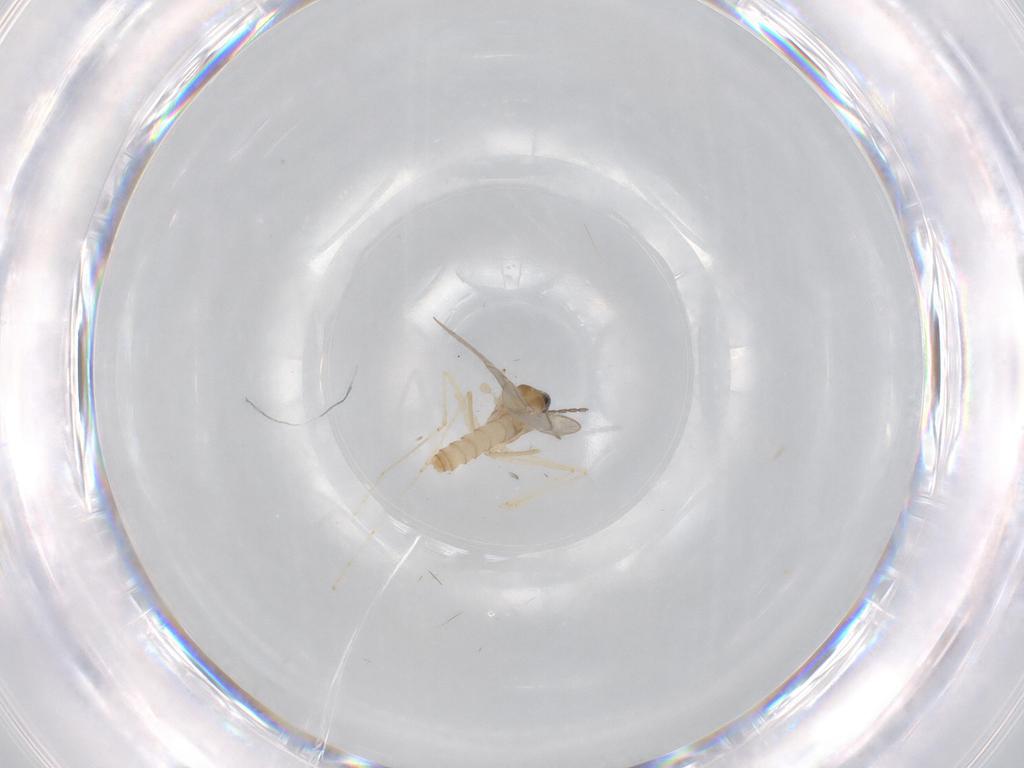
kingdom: Animalia
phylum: Arthropoda
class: Insecta
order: Diptera
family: Cecidomyiidae
